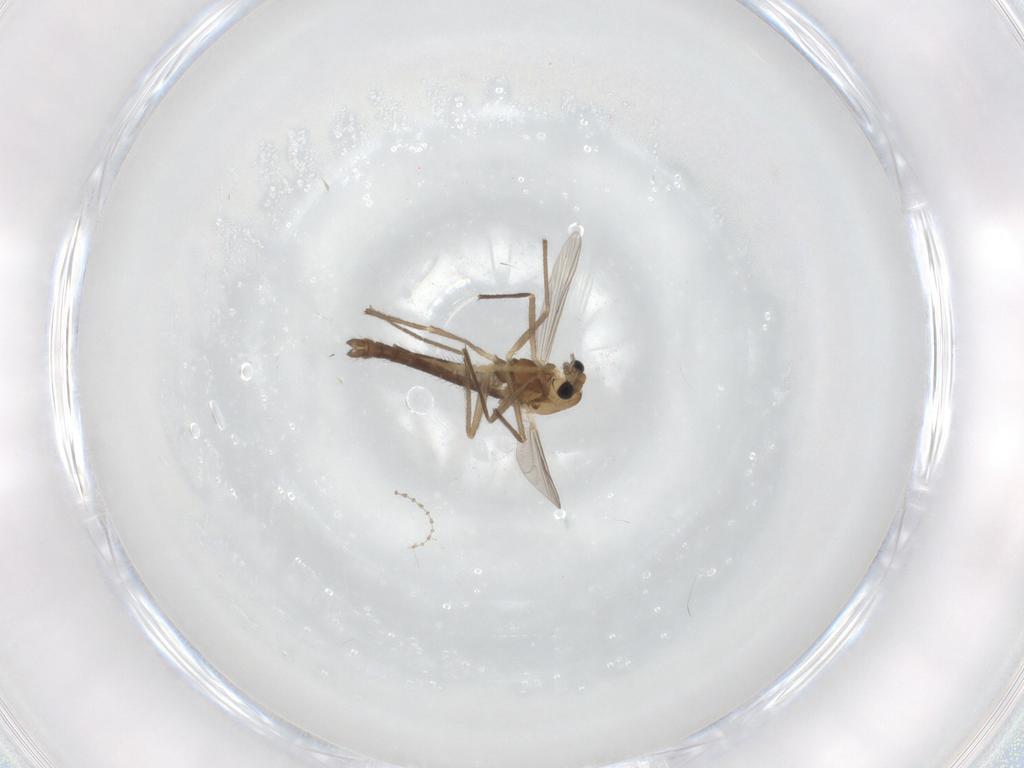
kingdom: Animalia
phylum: Arthropoda
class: Insecta
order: Diptera
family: Chironomidae
